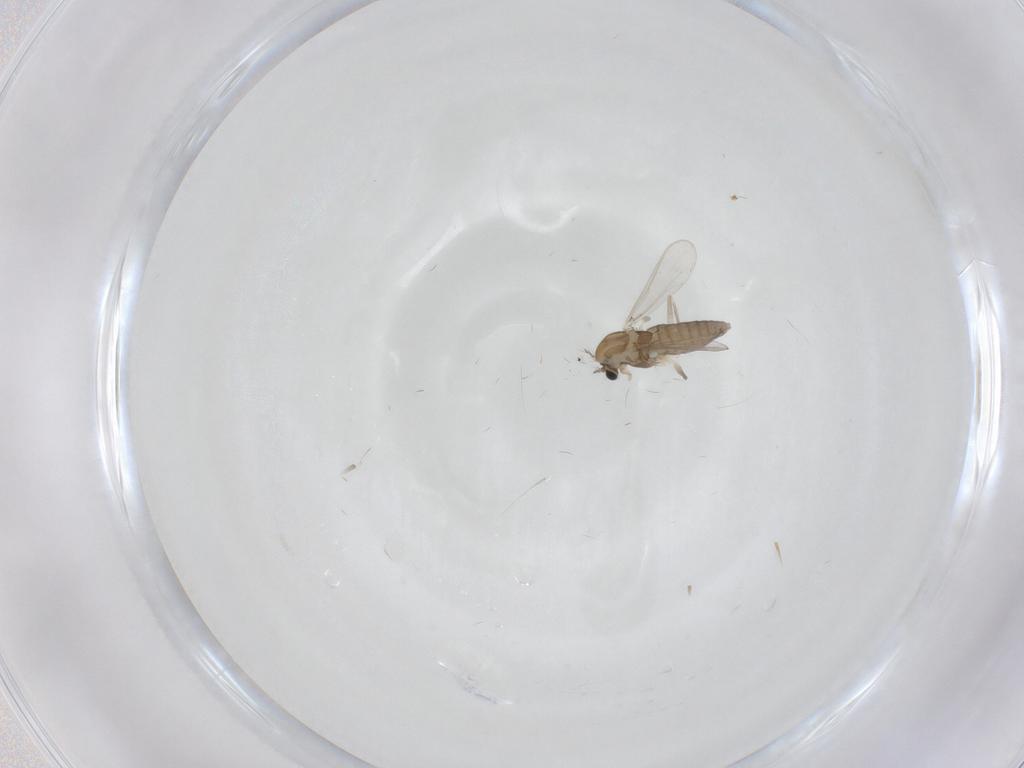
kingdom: Animalia
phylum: Arthropoda
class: Insecta
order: Diptera
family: Chironomidae
